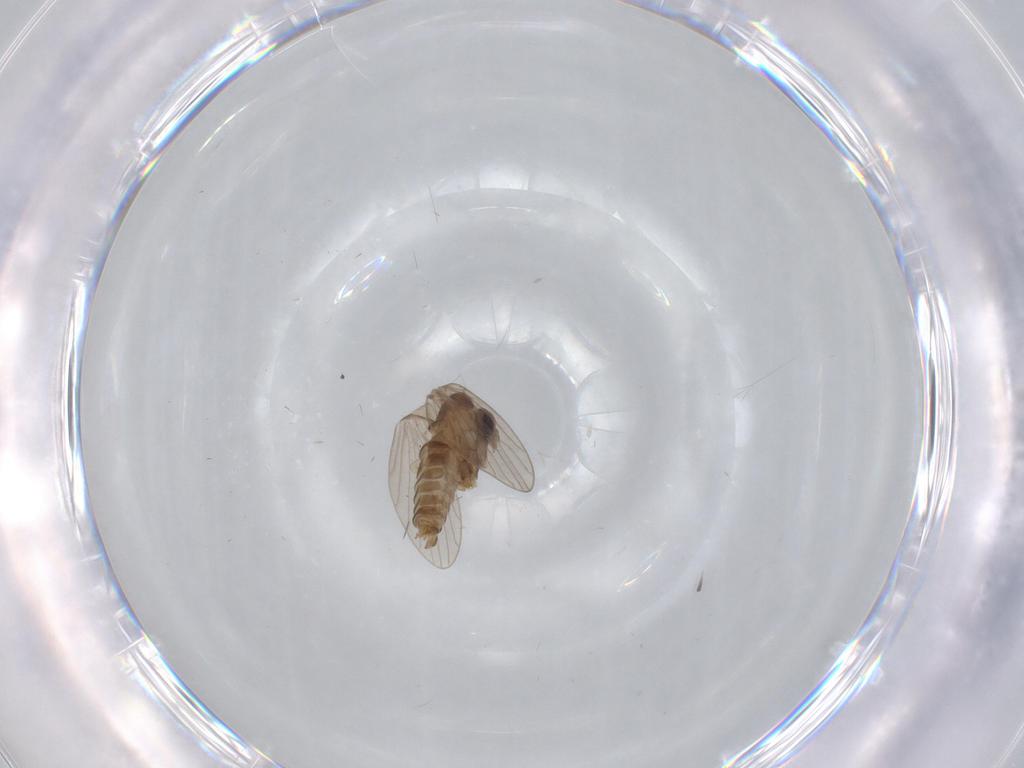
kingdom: Animalia
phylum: Arthropoda
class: Insecta
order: Diptera
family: Psychodidae
